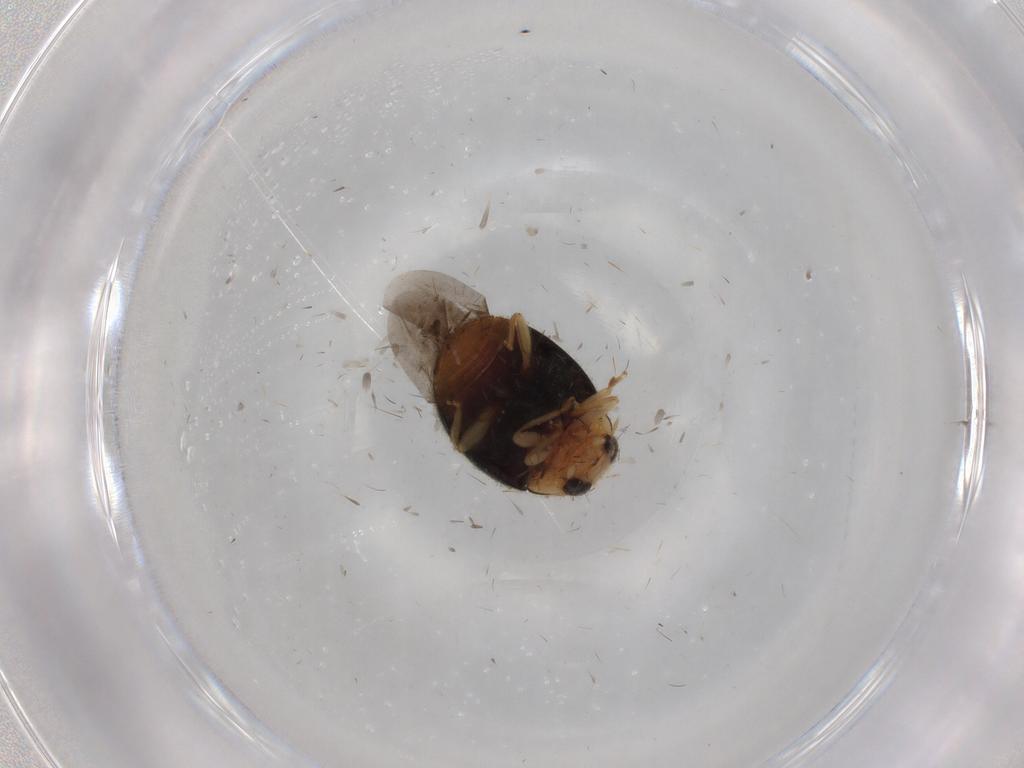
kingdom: Animalia
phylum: Arthropoda
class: Insecta
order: Coleoptera
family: Coccinellidae
